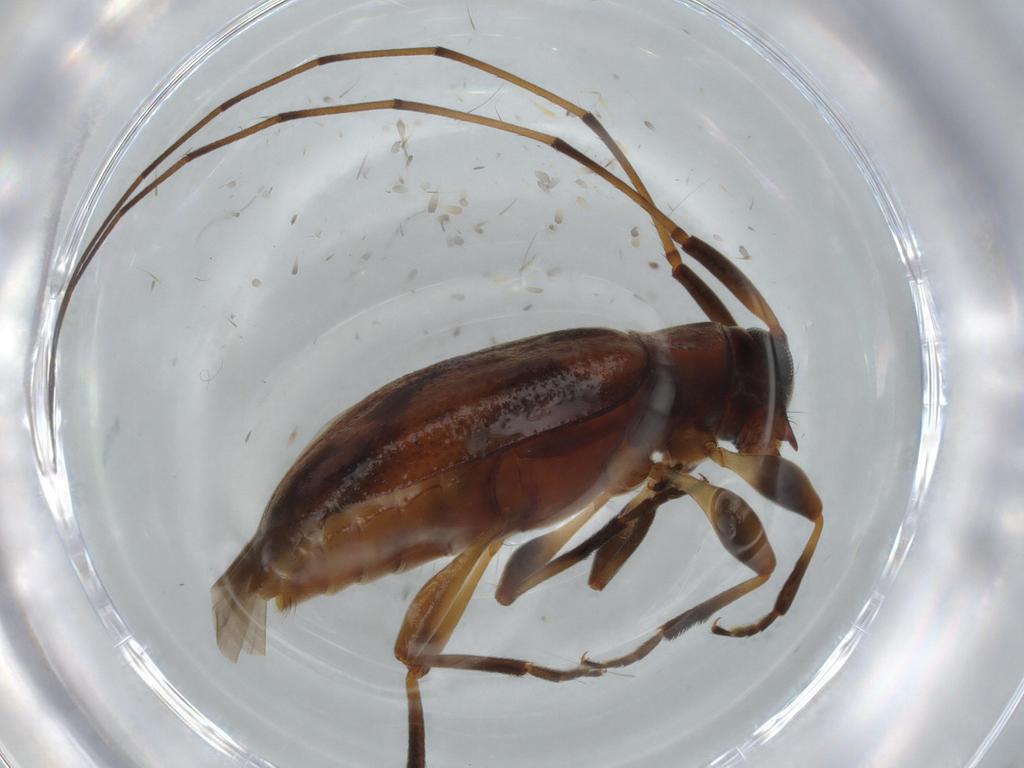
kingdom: Animalia
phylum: Arthropoda
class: Insecta
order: Coleoptera
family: Cerambycidae
